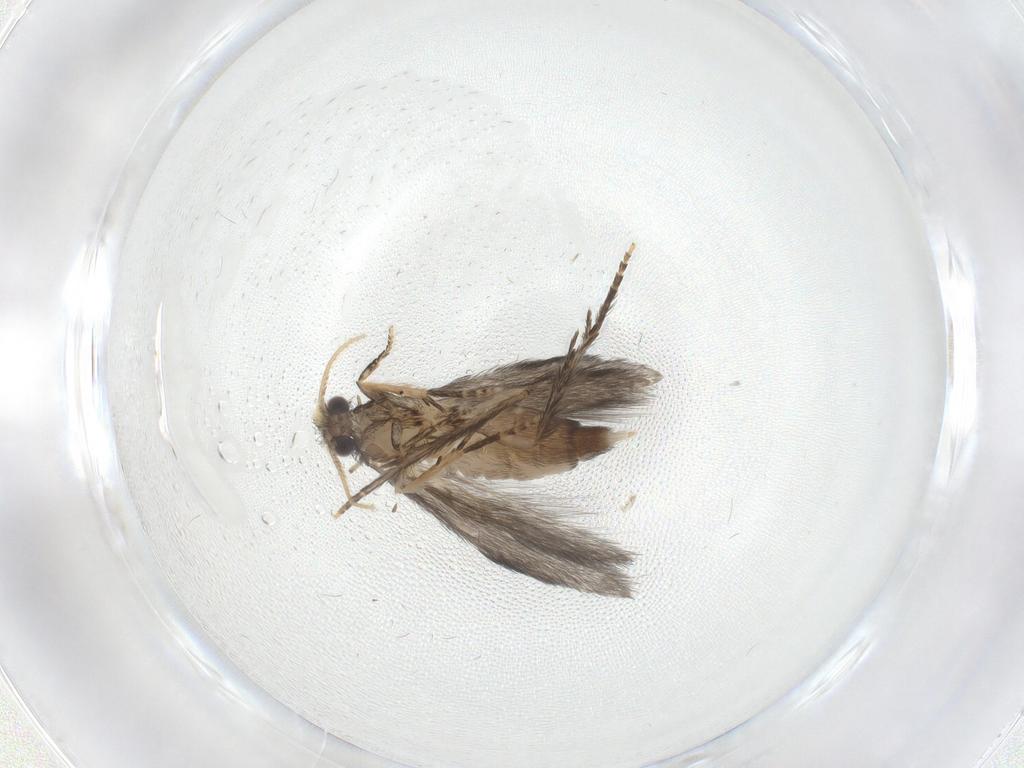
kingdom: Animalia
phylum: Arthropoda
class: Insecta
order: Trichoptera
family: Hydroptilidae
